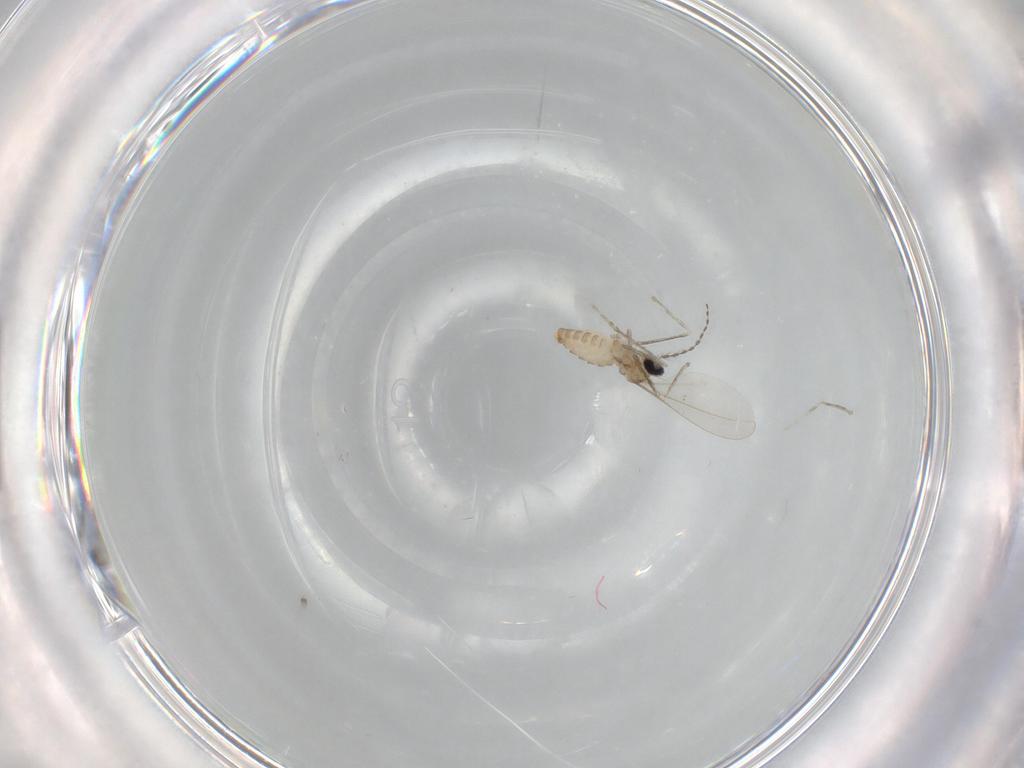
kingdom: Animalia
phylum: Arthropoda
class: Insecta
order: Diptera
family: Cecidomyiidae
